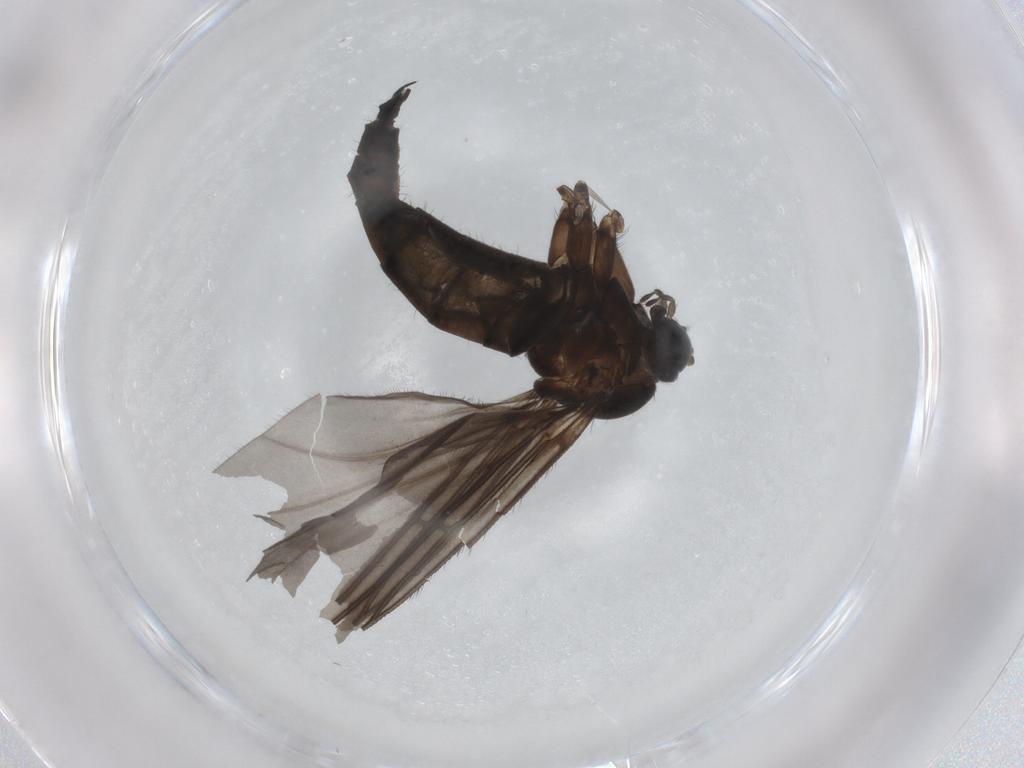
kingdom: Animalia
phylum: Arthropoda
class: Insecta
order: Diptera
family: Sciaridae
